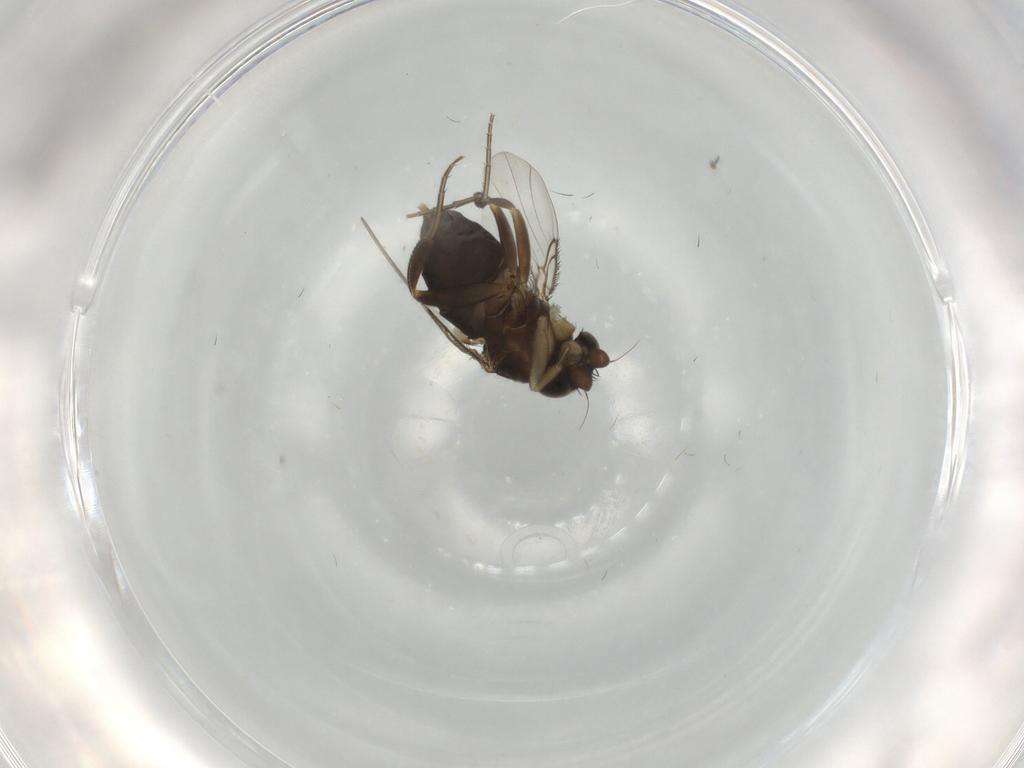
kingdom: Animalia
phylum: Arthropoda
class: Insecta
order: Diptera
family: Phoridae
